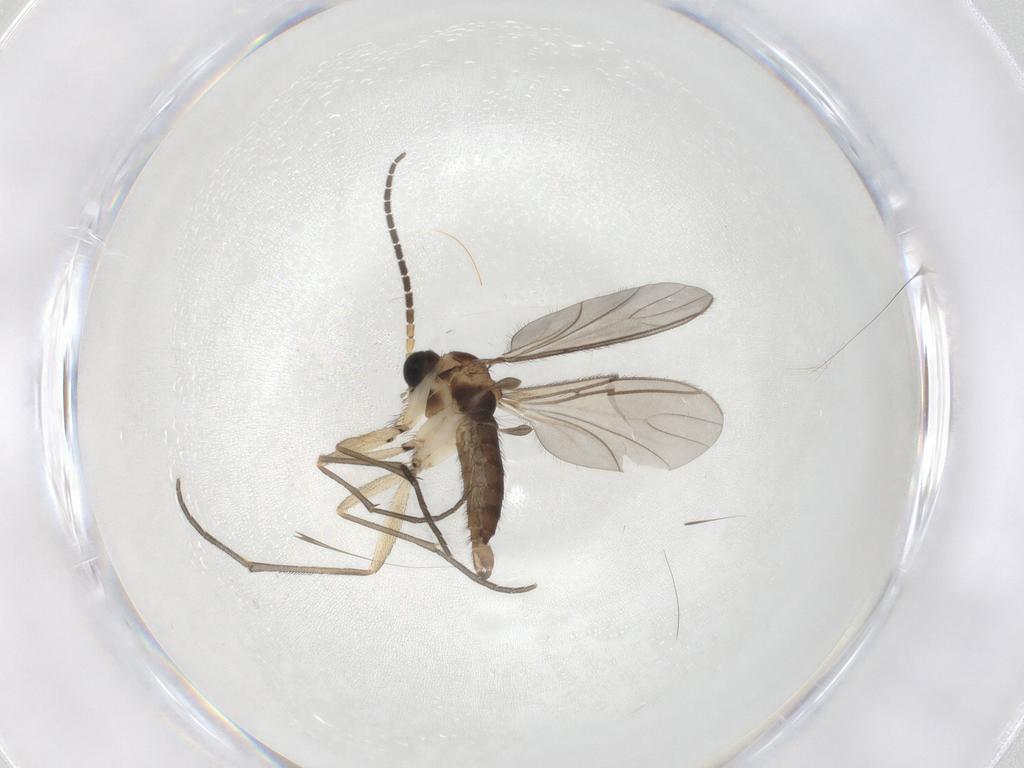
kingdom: Animalia
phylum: Arthropoda
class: Insecta
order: Diptera
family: Sciaridae
